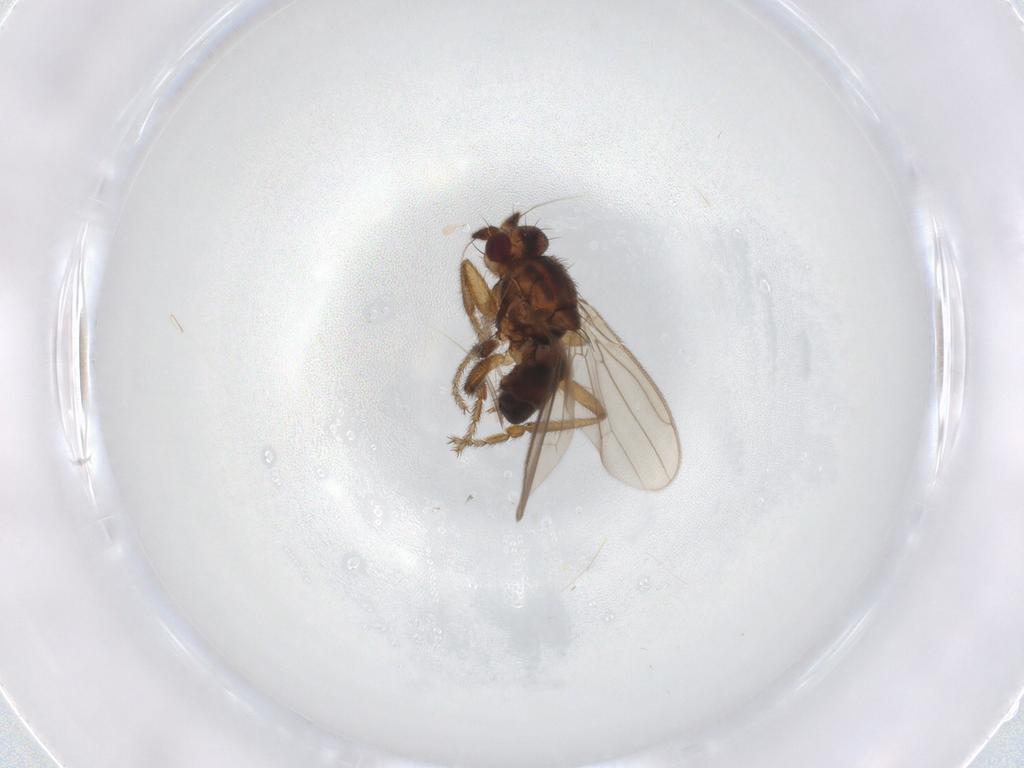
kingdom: Animalia
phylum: Arthropoda
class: Insecta
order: Diptera
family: Sphaeroceridae
